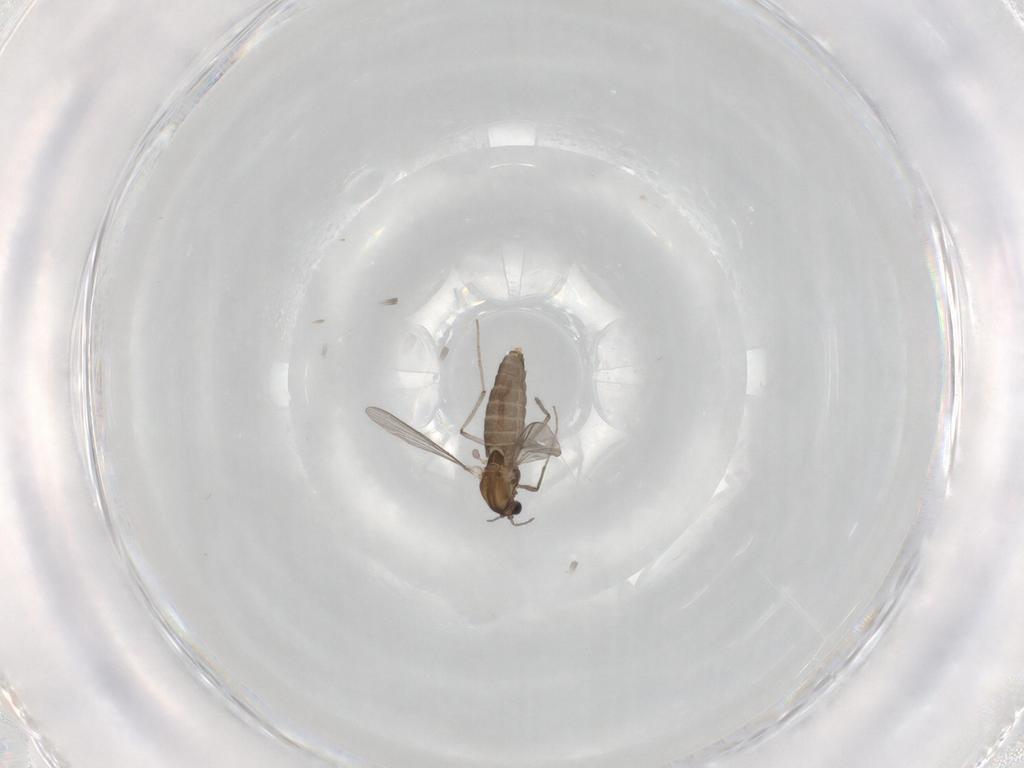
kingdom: Animalia
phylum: Arthropoda
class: Insecta
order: Diptera
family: Chironomidae
